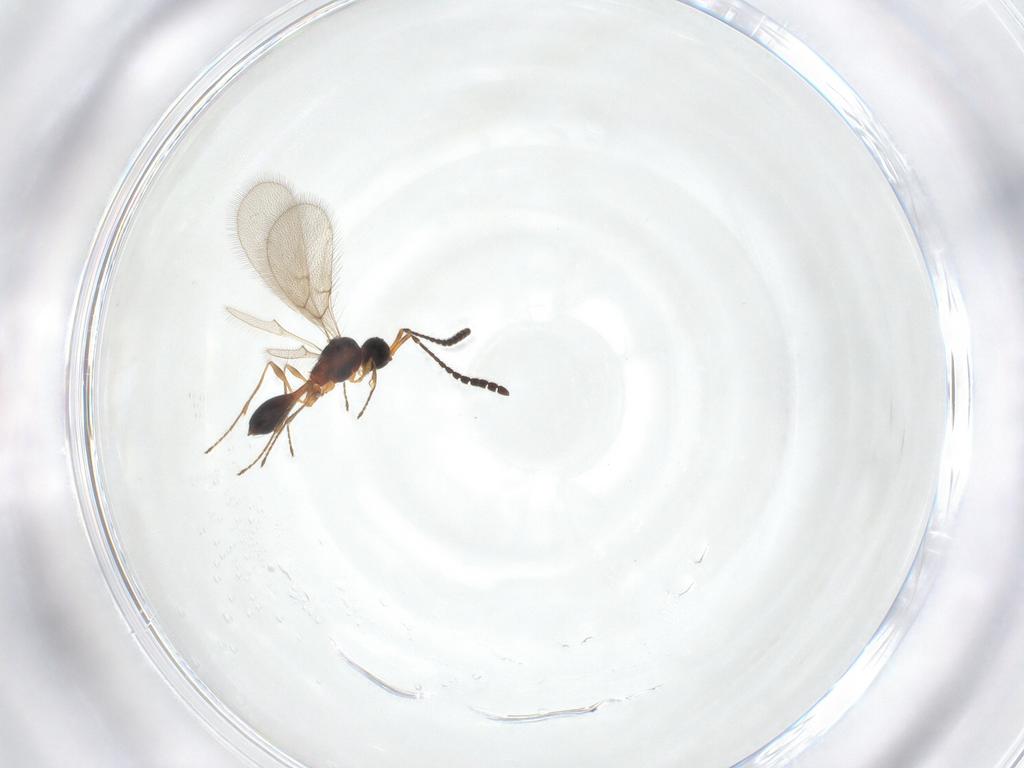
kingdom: Animalia
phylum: Arthropoda
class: Insecta
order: Hymenoptera
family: Diapriidae
